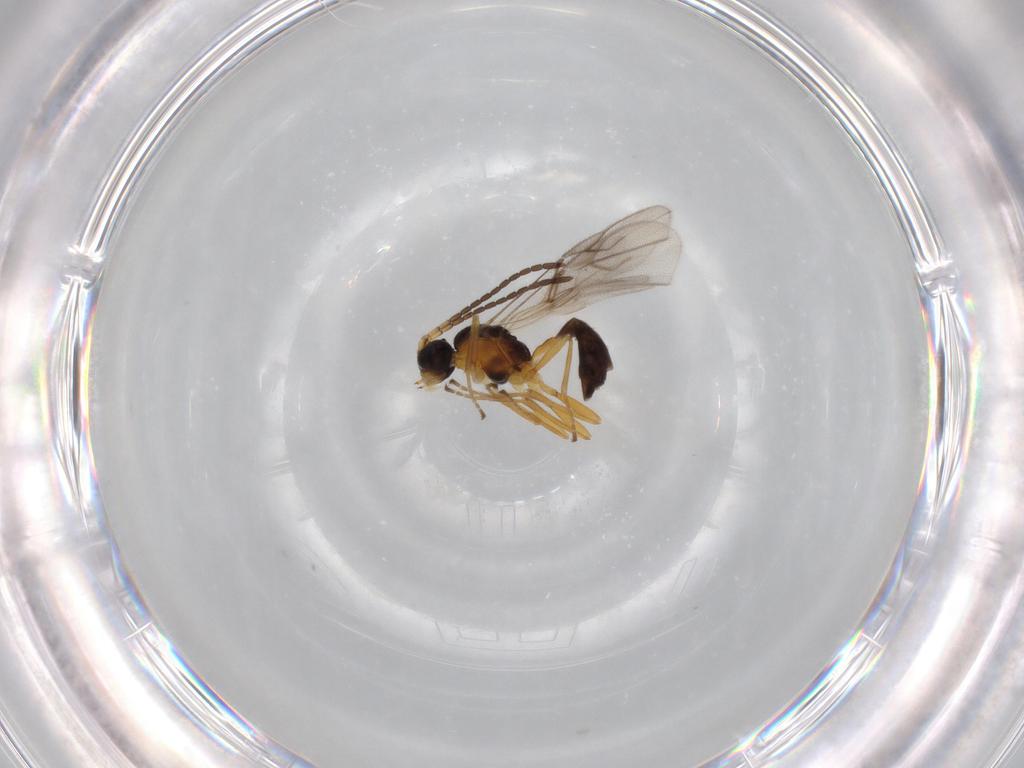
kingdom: Animalia
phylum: Arthropoda
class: Insecta
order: Hymenoptera
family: Braconidae
